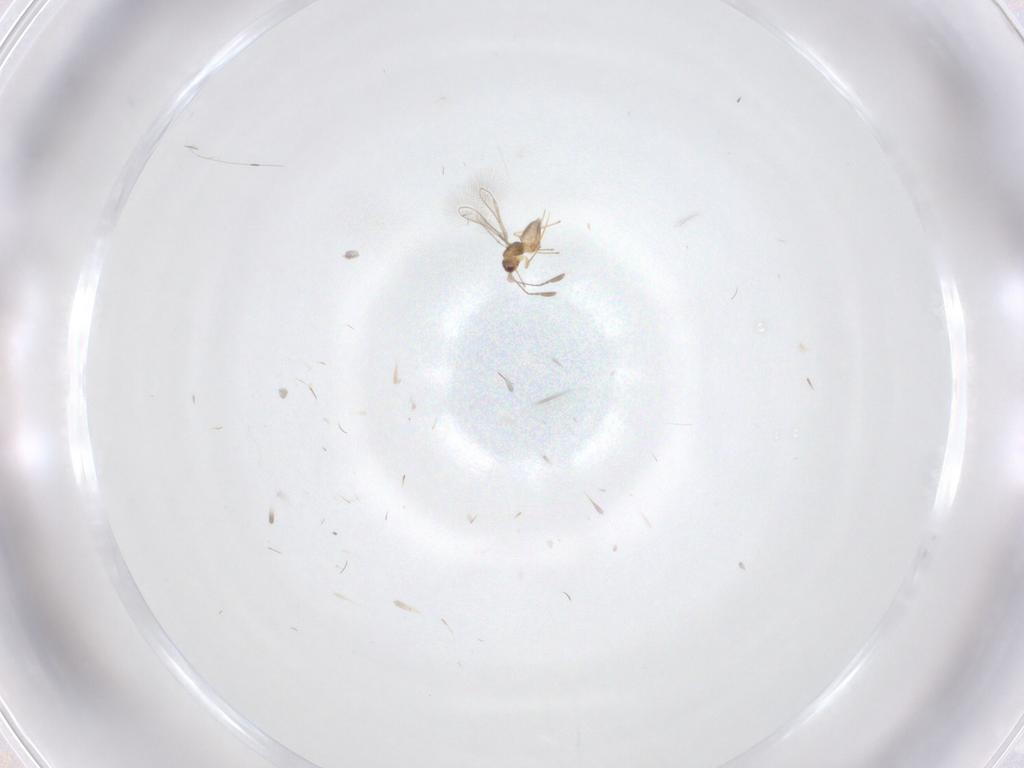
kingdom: Animalia
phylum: Arthropoda
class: Insecta
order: Hymenoptera
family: Mymaridae
